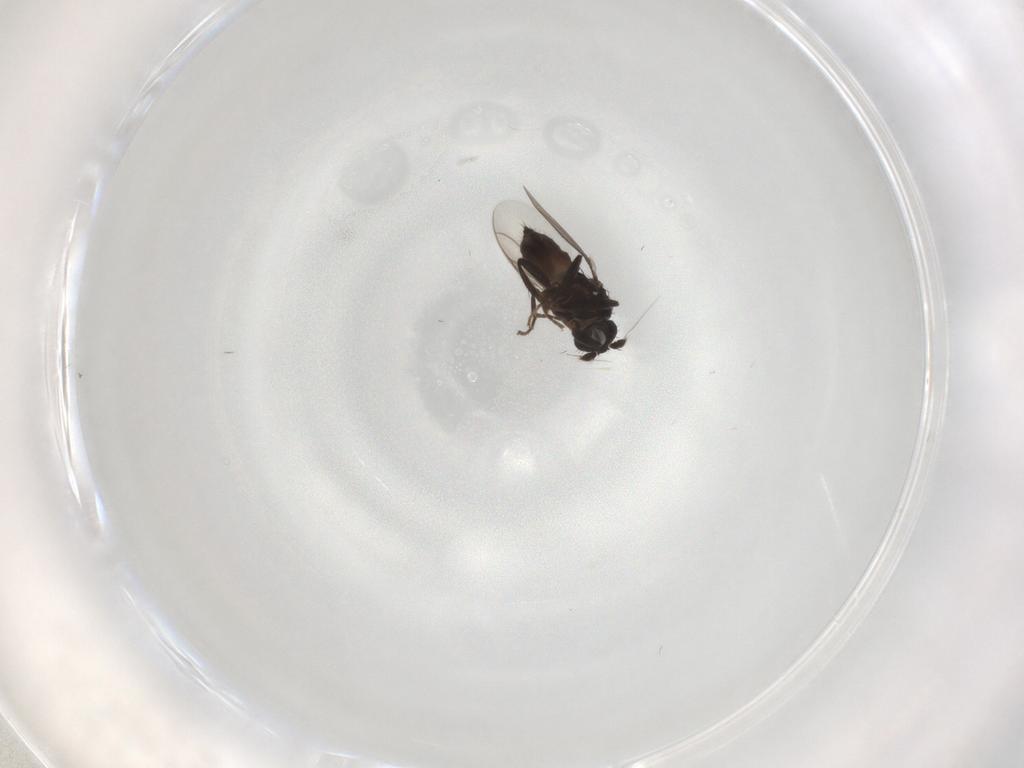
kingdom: Animalia
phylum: Arthropoda
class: Insecta
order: Diptera
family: Sphaeroceridae
